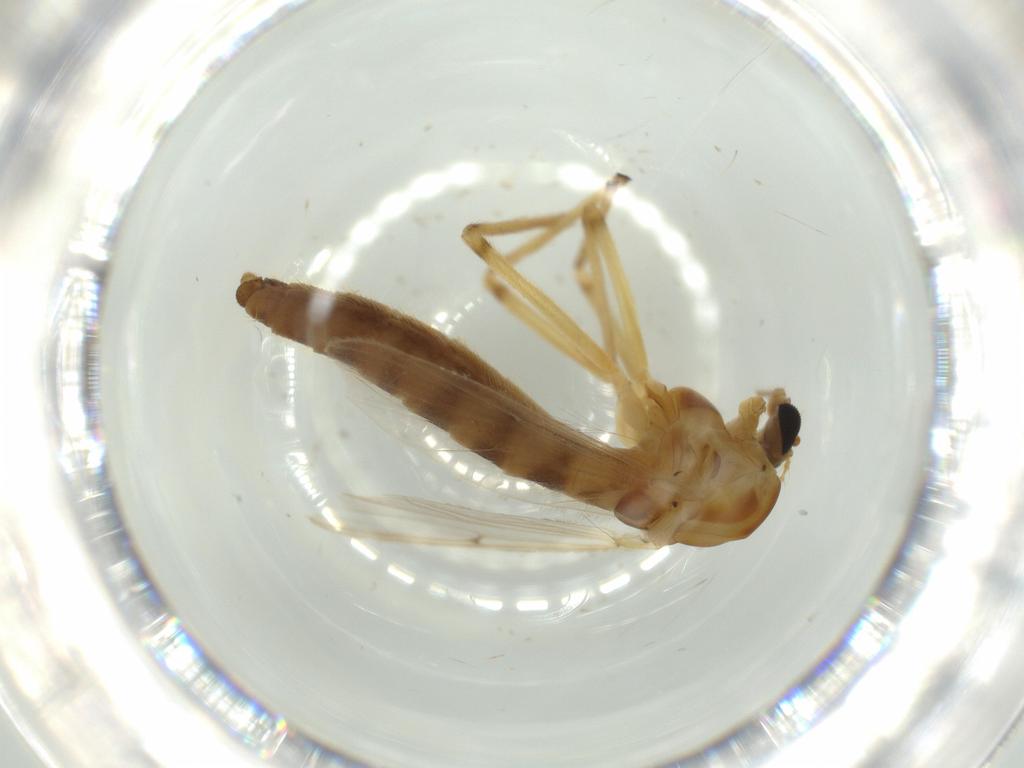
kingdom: Animalia
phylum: Arthropoda
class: Insecta
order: Diptera
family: Chironomidae
